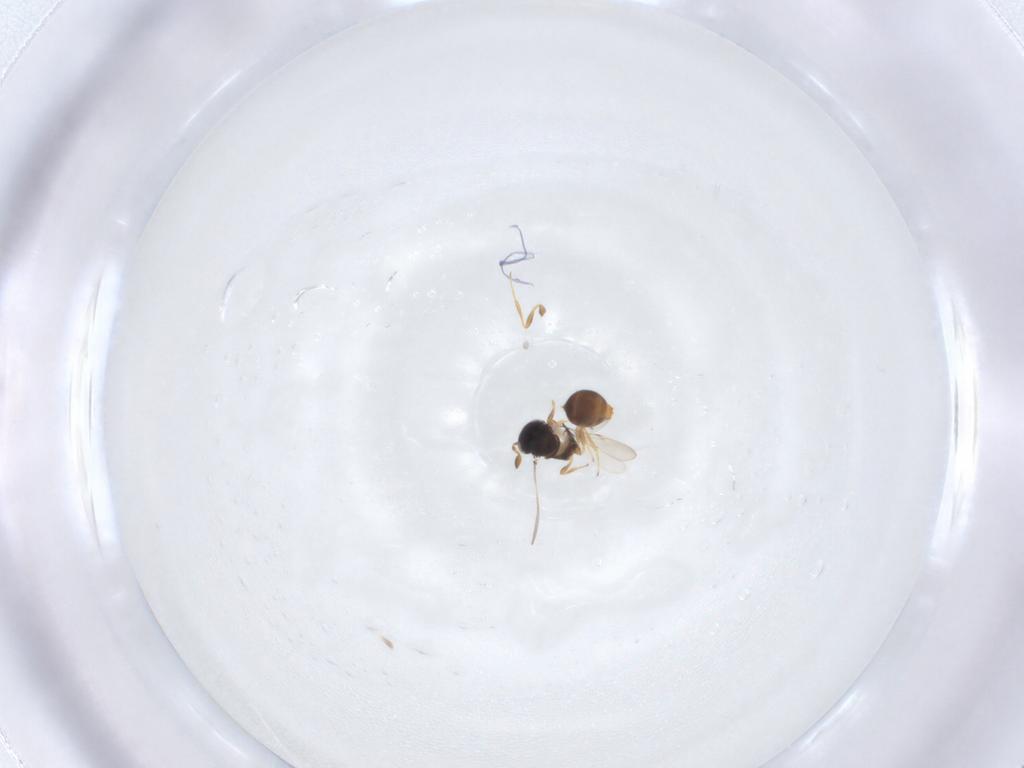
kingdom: Animalia
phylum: Arthropoda
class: Insecta
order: Hymenoptera
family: Scelionidae
